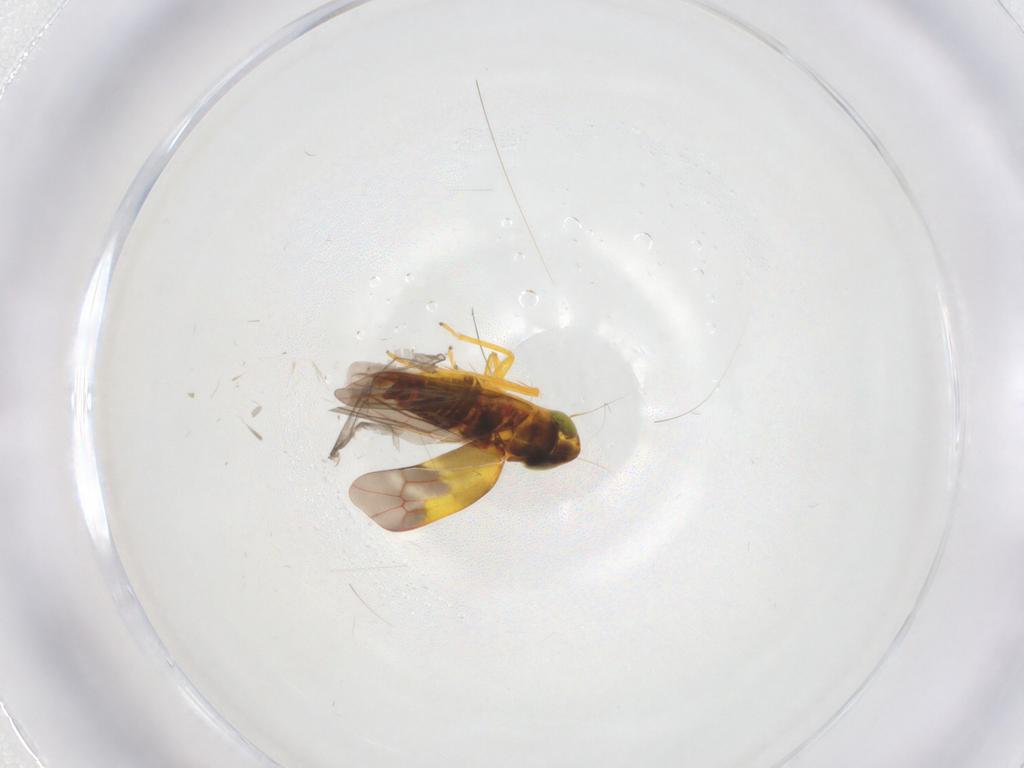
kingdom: Animalia
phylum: Arthropoda
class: Insecta
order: Hemiptera
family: Cicadellidae
